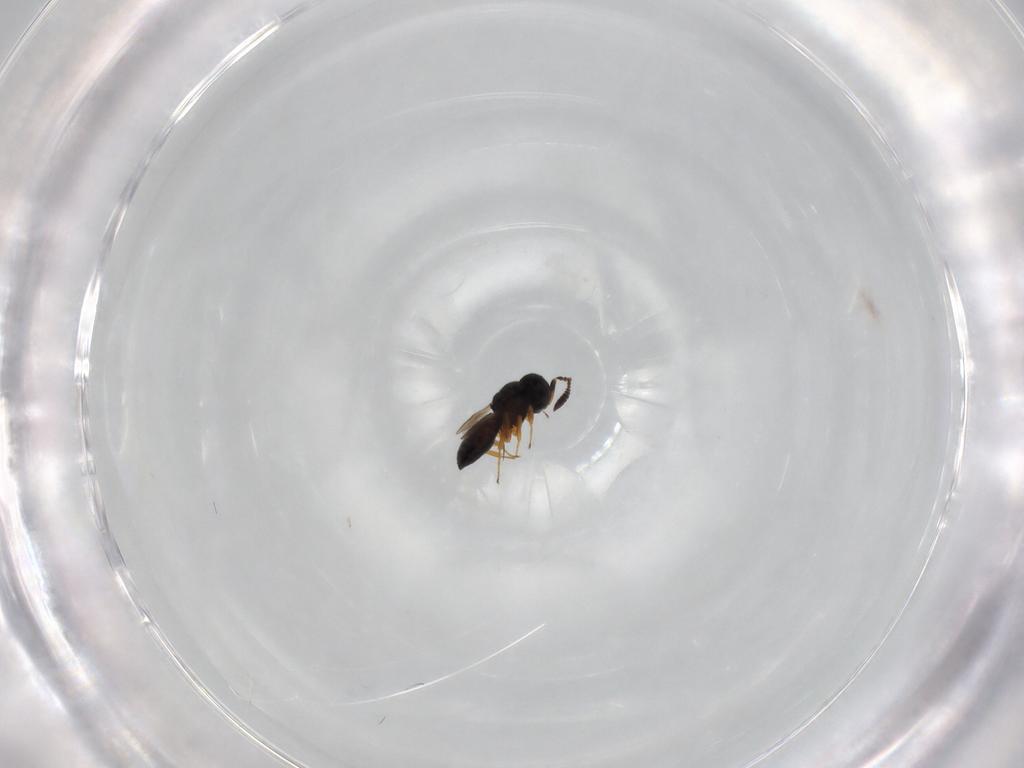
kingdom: Animalia
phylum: Arthropoda
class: Insecta
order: Hymenoptera
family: Scelionidae
